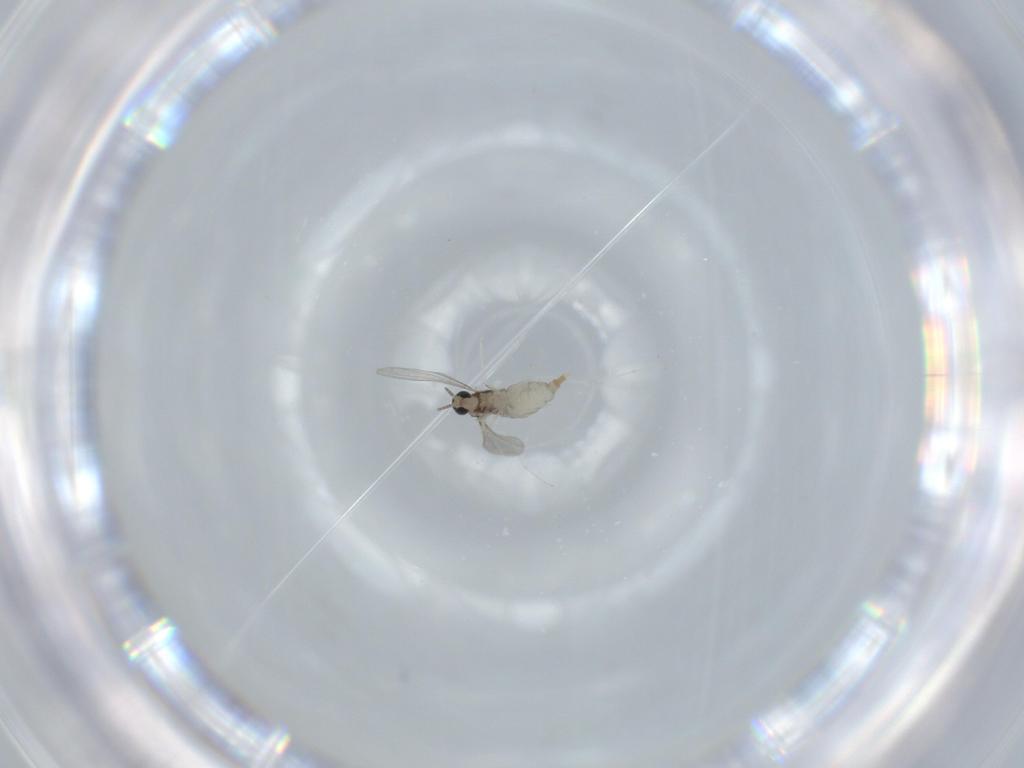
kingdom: Animalia
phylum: Arthropoda
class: Insecta
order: Diptera
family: Cecidomyiidae
